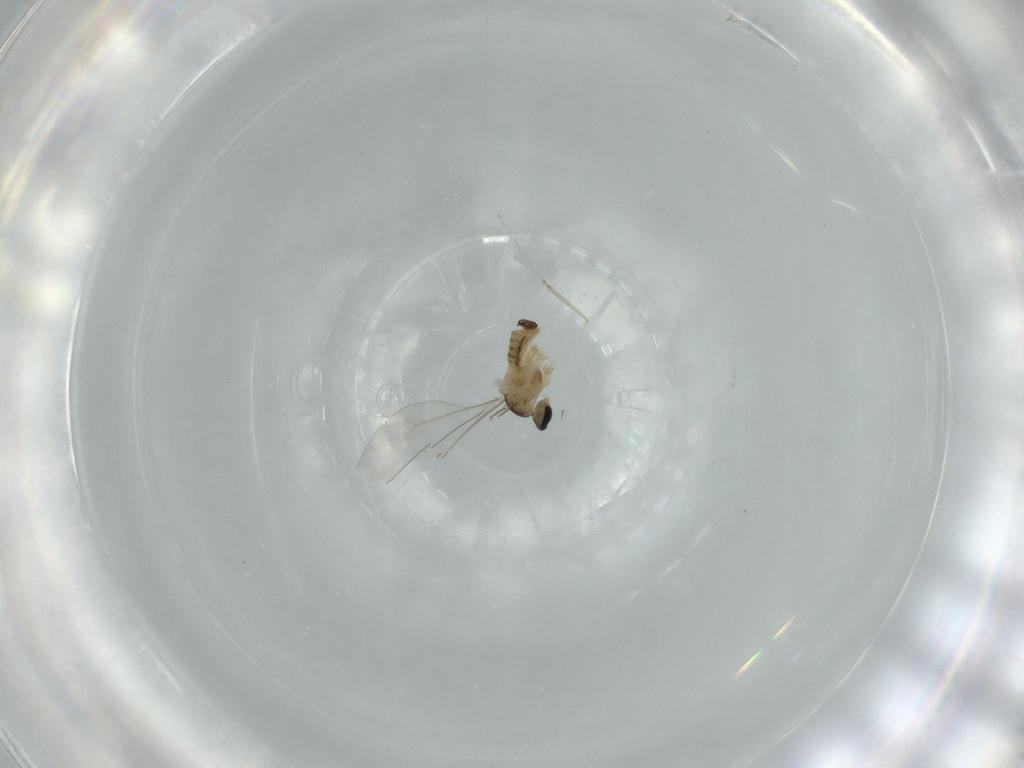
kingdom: Animalia
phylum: Arthropoda
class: Insecta
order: Diptera
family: Cecidomyiidae
